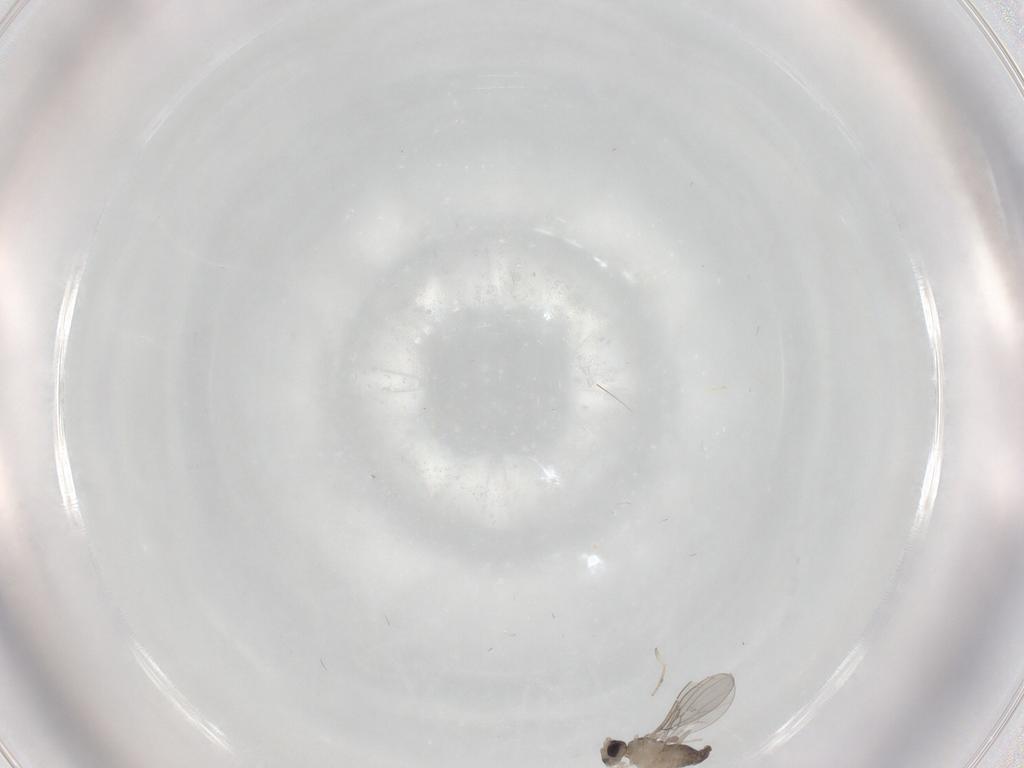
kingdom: Animalia
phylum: Arthropoda
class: Insecta
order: Diptera
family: Cecidomyiidae
